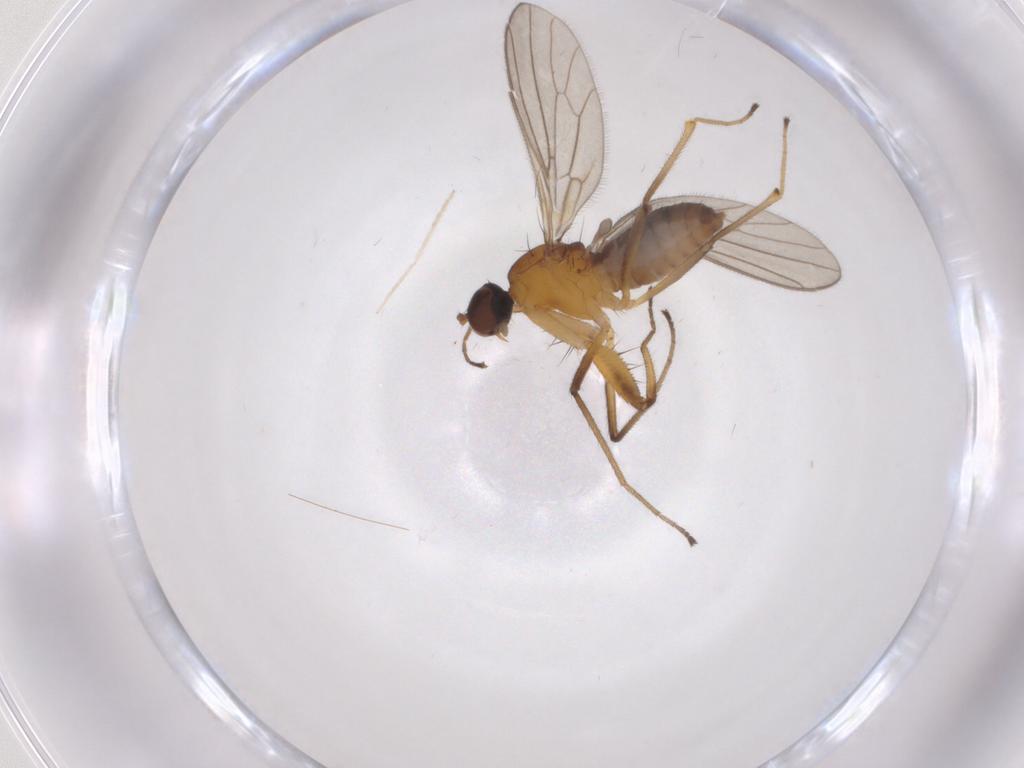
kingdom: Animalia
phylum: Arthropoda
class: Insecta
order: Diptera
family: Empididae
